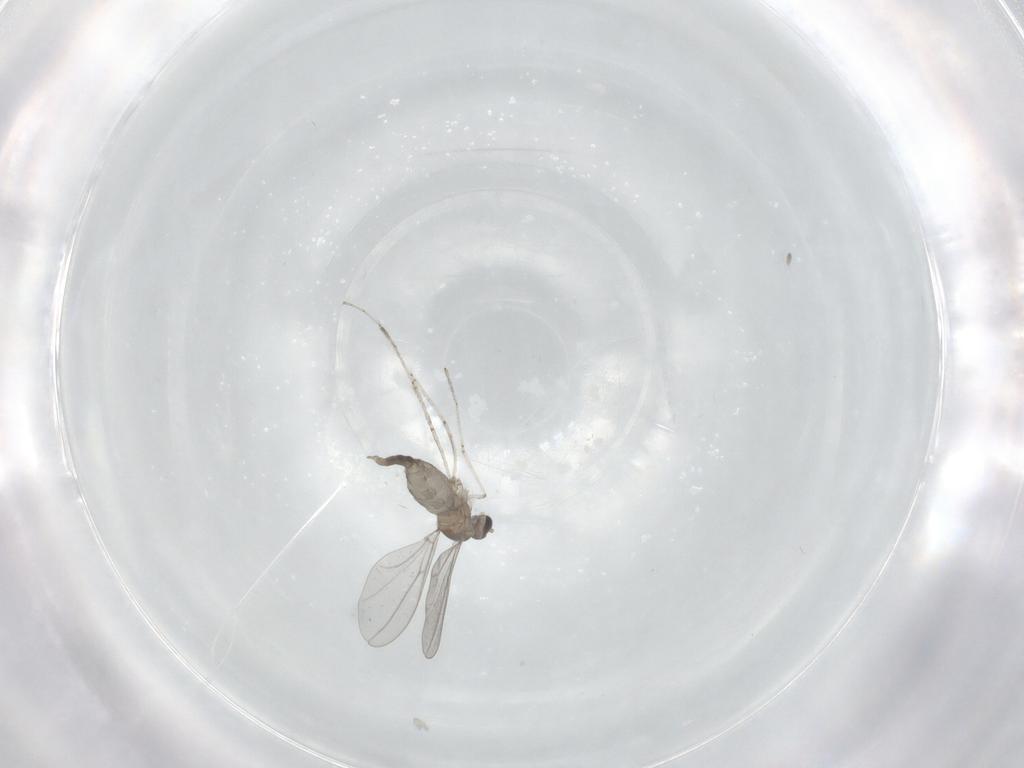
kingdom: Animalia
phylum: Arthropoda
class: Insecta
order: Diptera
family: Cecidomyiidae
